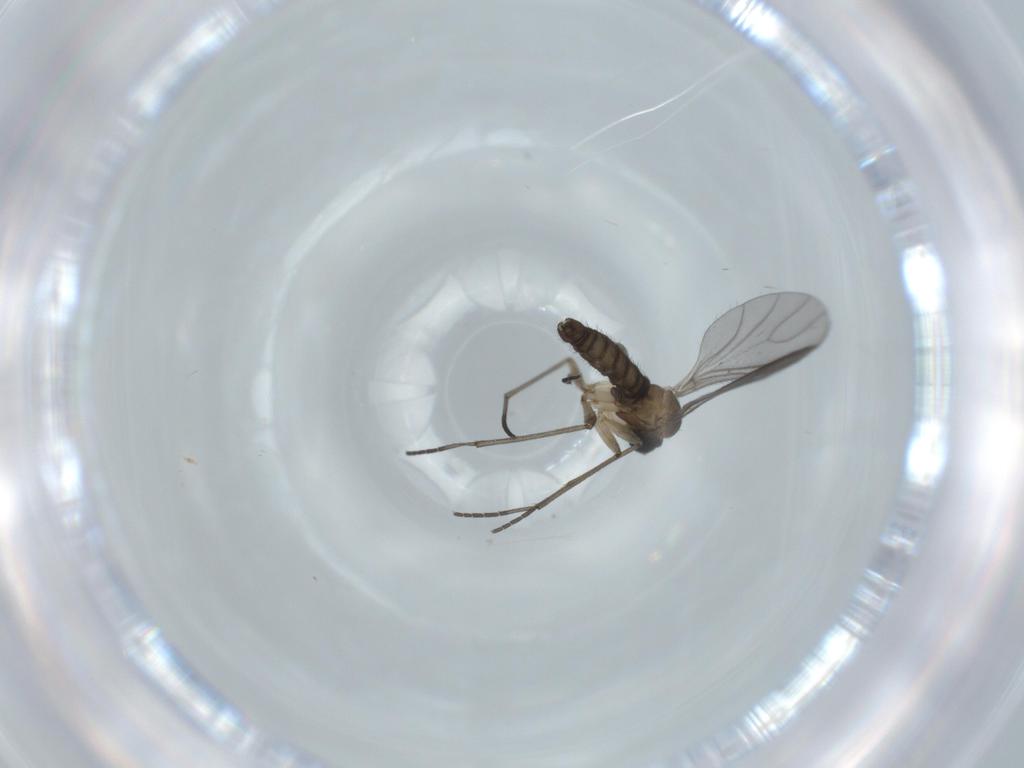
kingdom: Animalia
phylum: Arthropoda
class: Insecta
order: Diptera
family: Sciaridae
